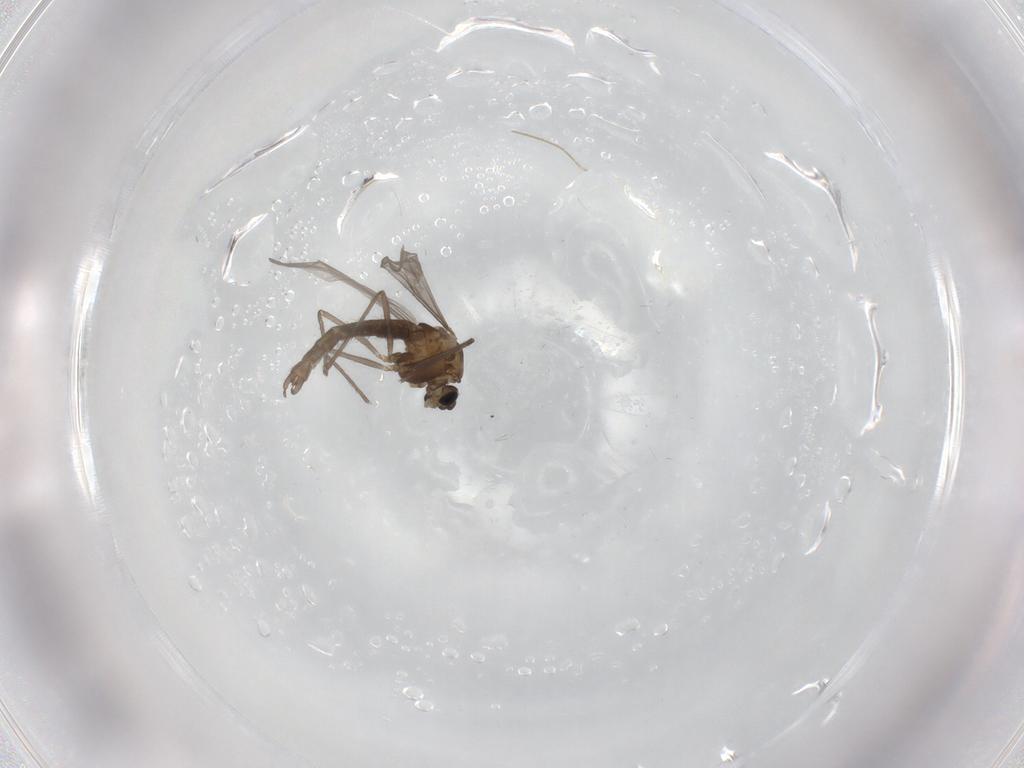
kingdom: Animalia
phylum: Arthropoda
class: Insecta
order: Diptera
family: Chironomidae
